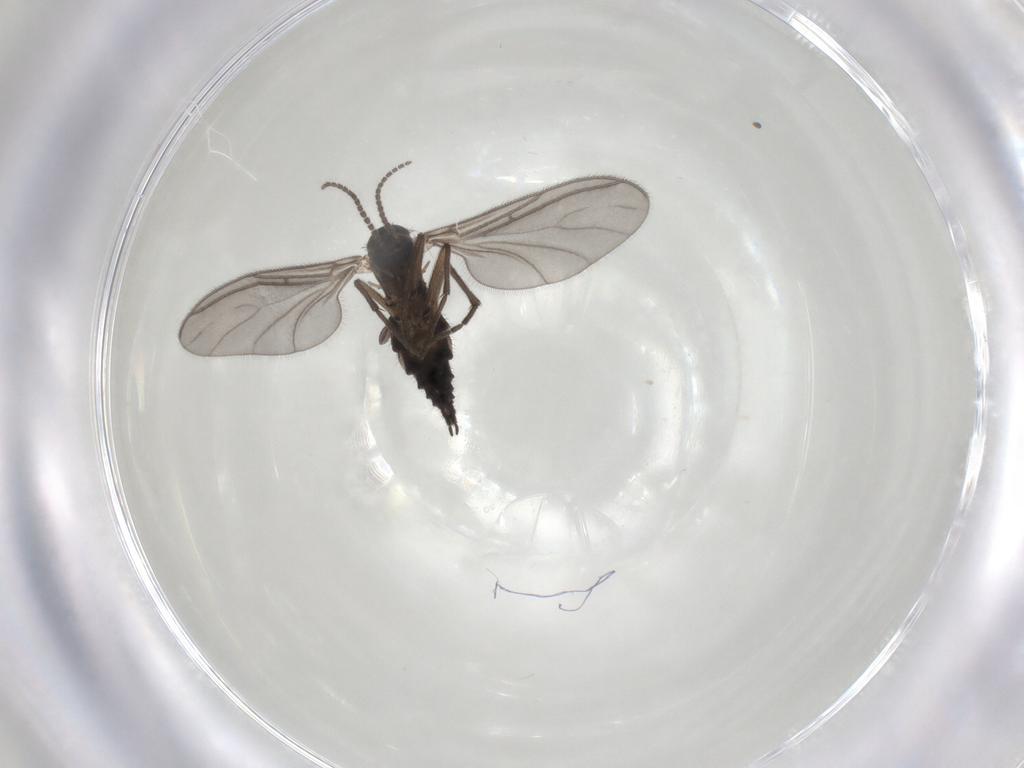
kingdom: Animalia
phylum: Arthropoda
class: Insecta
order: Diptera
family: Sciaridae
